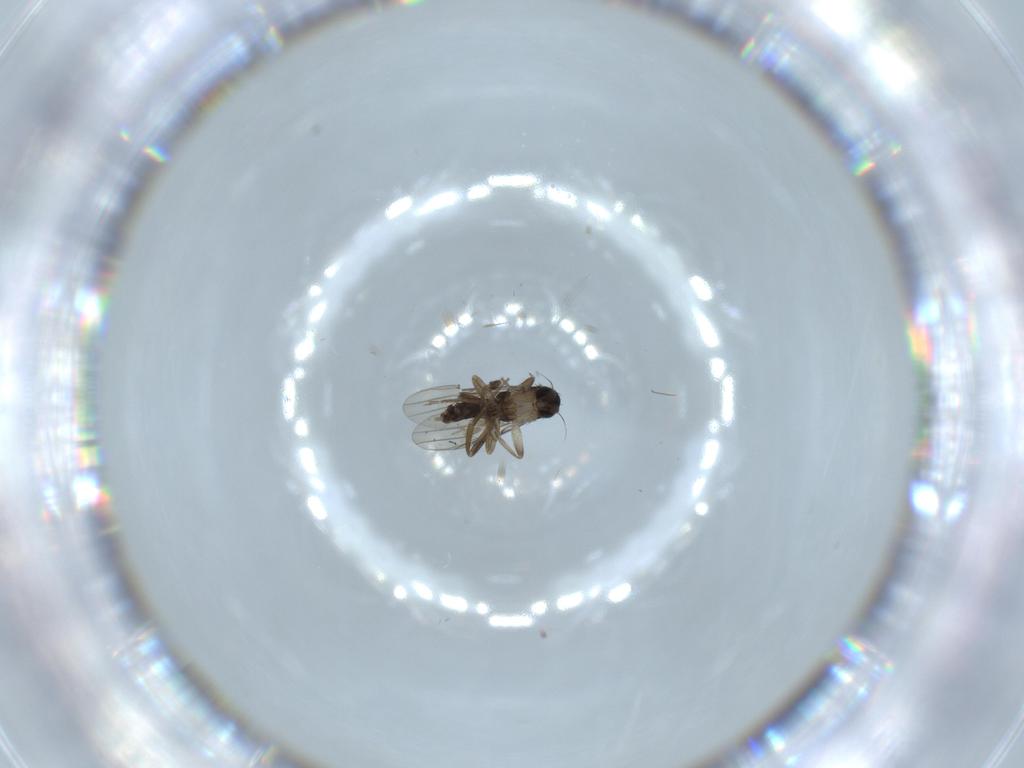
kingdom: Animalia
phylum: Arthropoda
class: Insecta
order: Diptera
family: Phoridae
